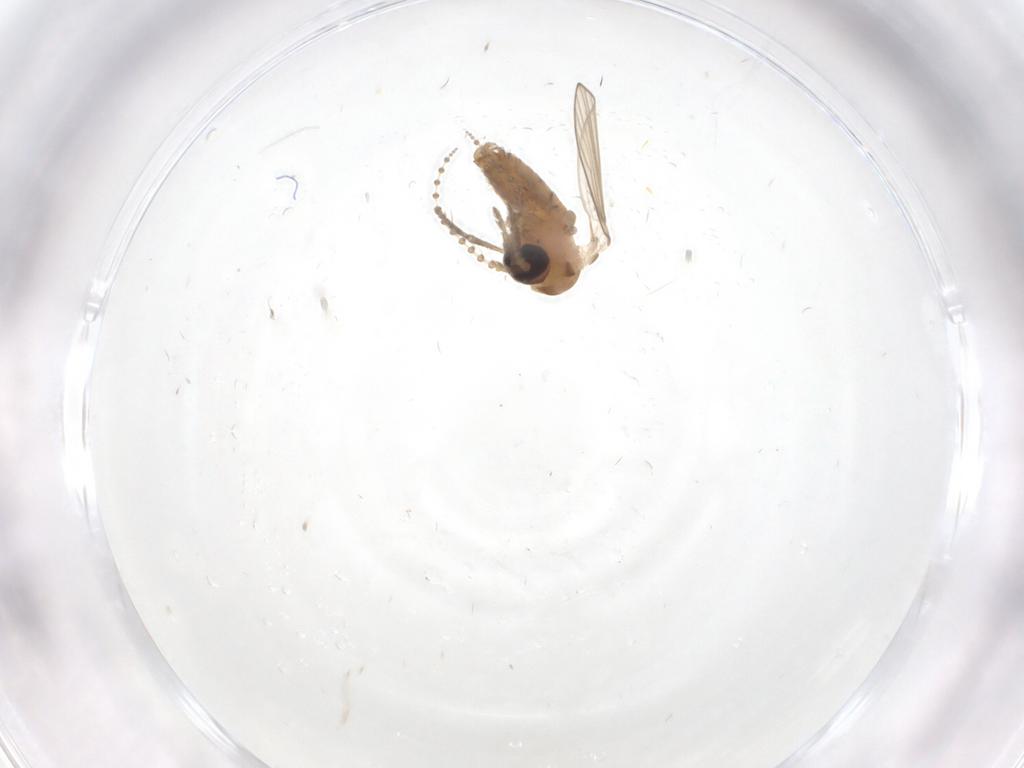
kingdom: Animalia
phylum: Arthropoda
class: Insecta
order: Diptera
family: Psychodidae
